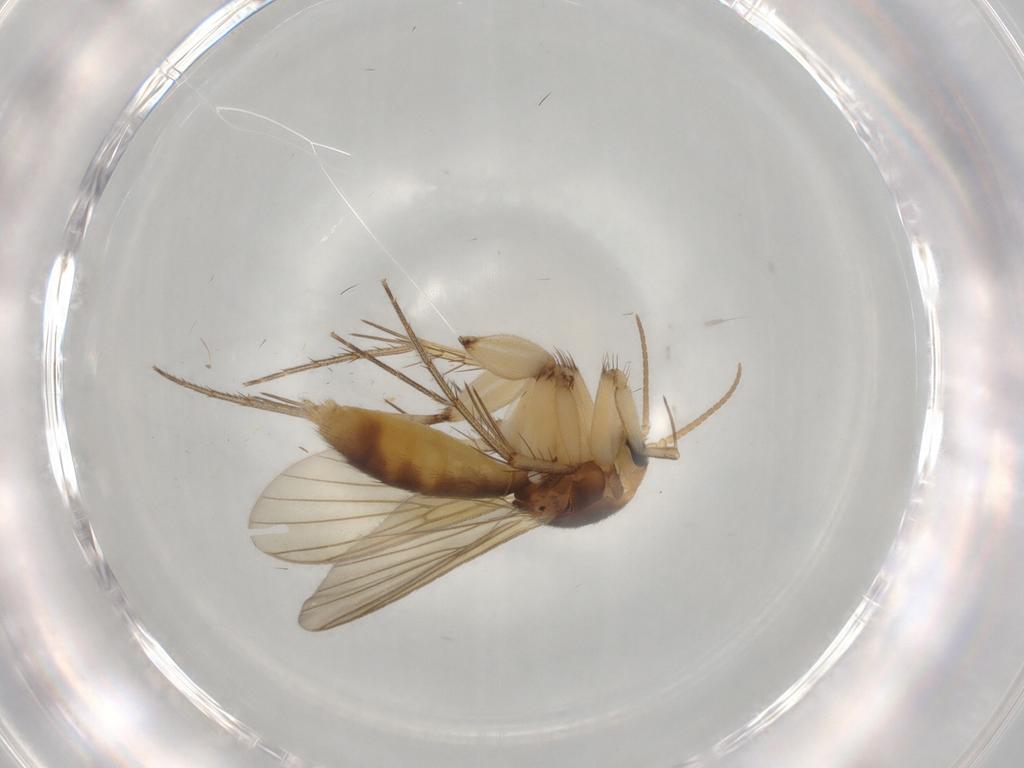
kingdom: Animalia
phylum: Arthropoda
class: Insecta
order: Diptera
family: Mycetophilidae
